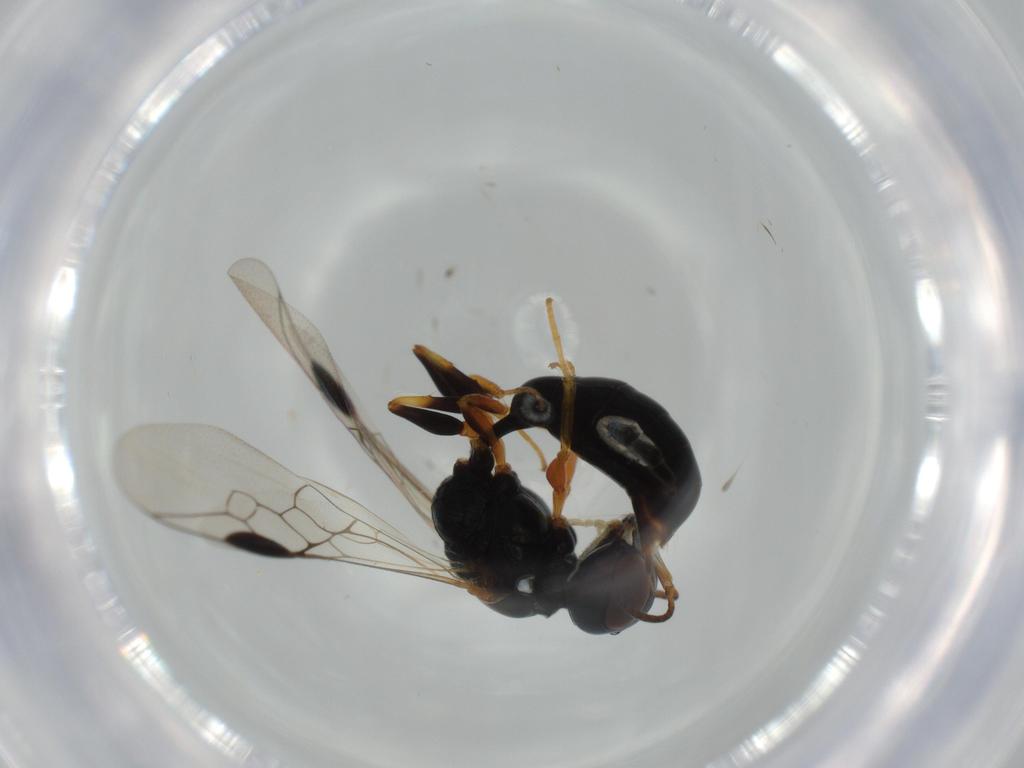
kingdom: Animalia
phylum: Arthropoda
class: Insecta
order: Hymenoptera
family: Pemphredonidae
